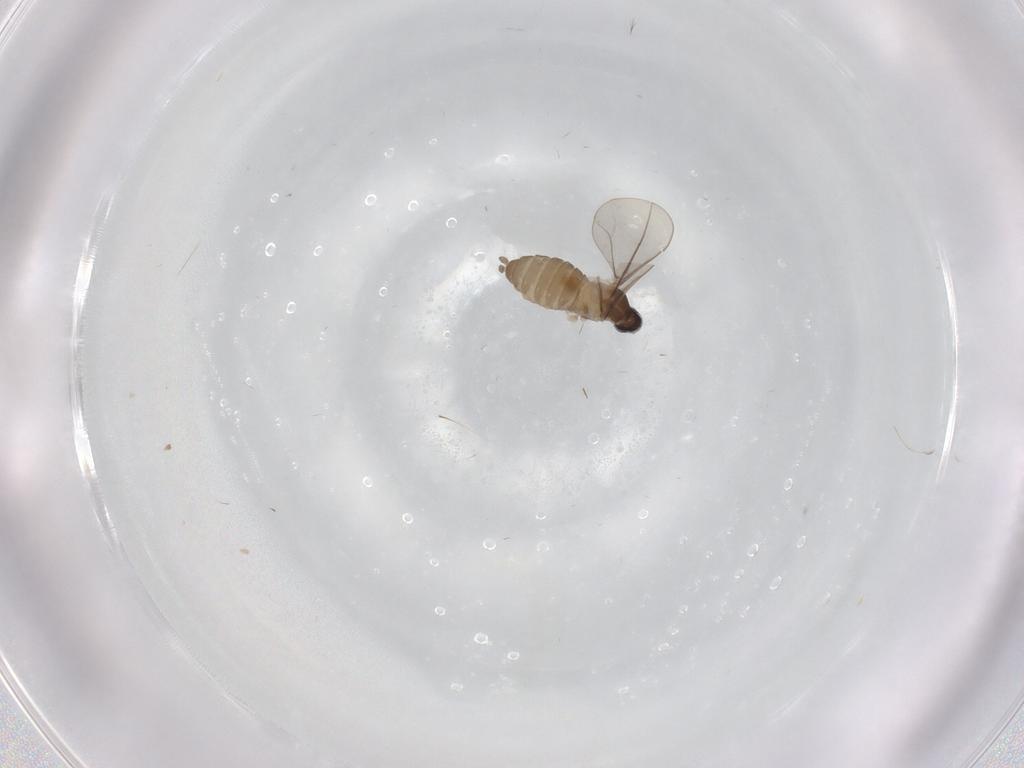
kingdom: Animalia
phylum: Arthropoda
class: Insecta
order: Diptera
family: Cecidomyiidae
